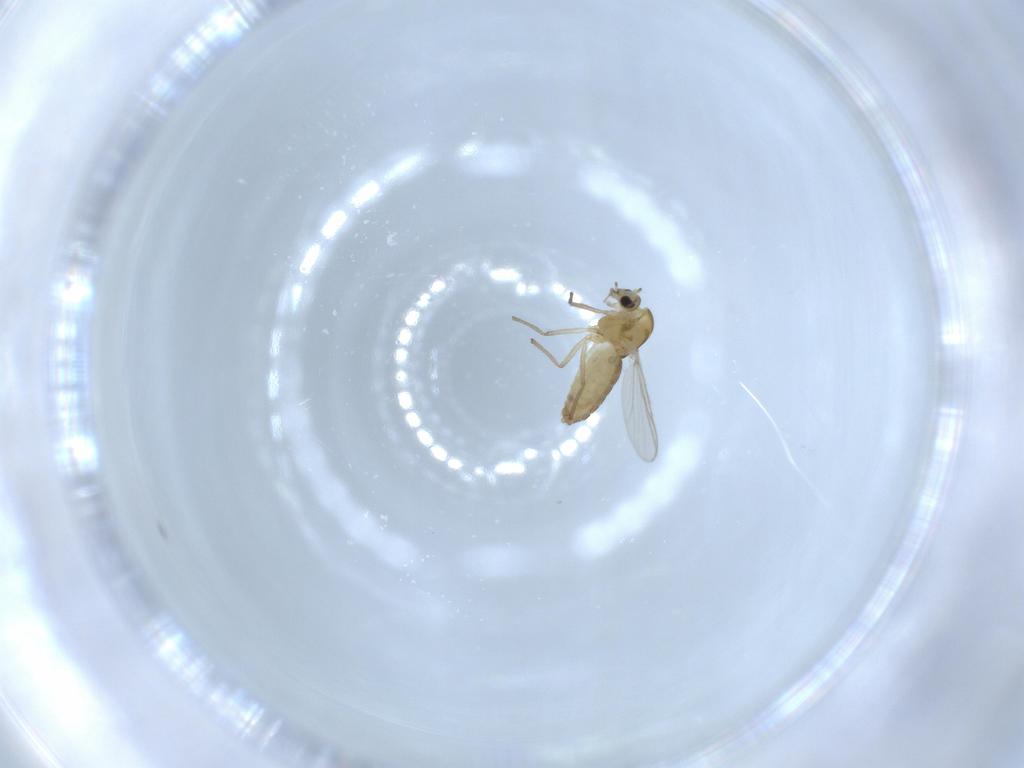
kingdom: Animalia
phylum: Arthropoda
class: Insecta
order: Diptera
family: Chironomidae
